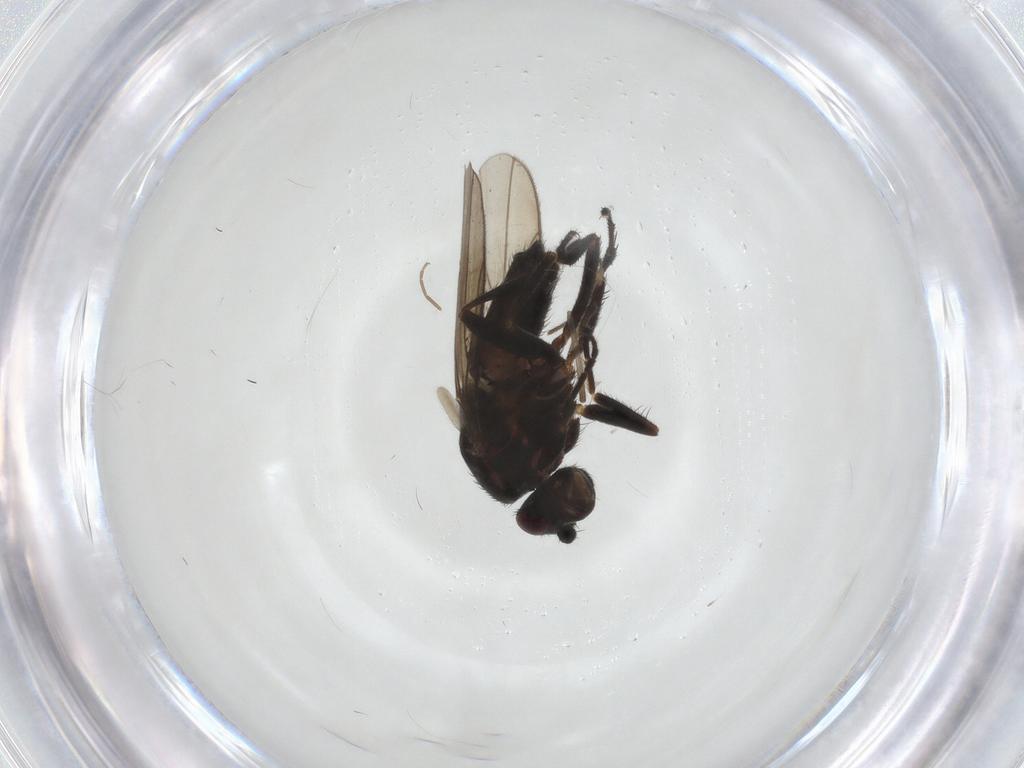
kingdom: Animalia
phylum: Arthropoda
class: Insecta
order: Diptera
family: Sphaeroceridae
